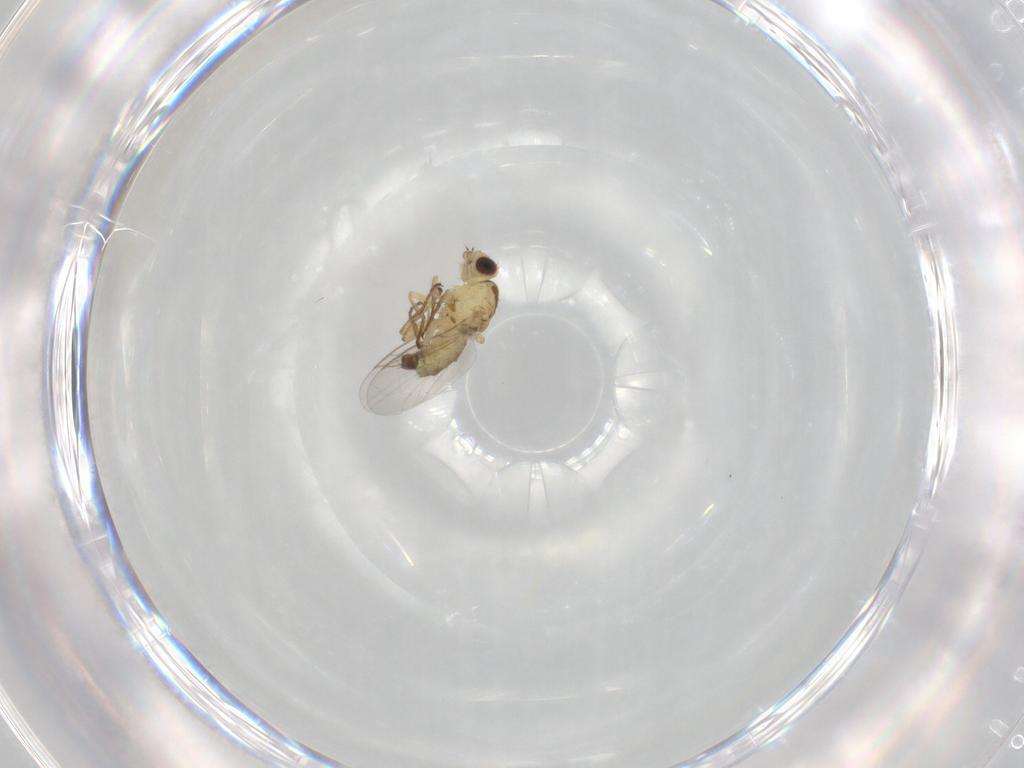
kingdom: Animalia
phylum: Arthropoda
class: Insecta
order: Diptera
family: Agromyzidae
